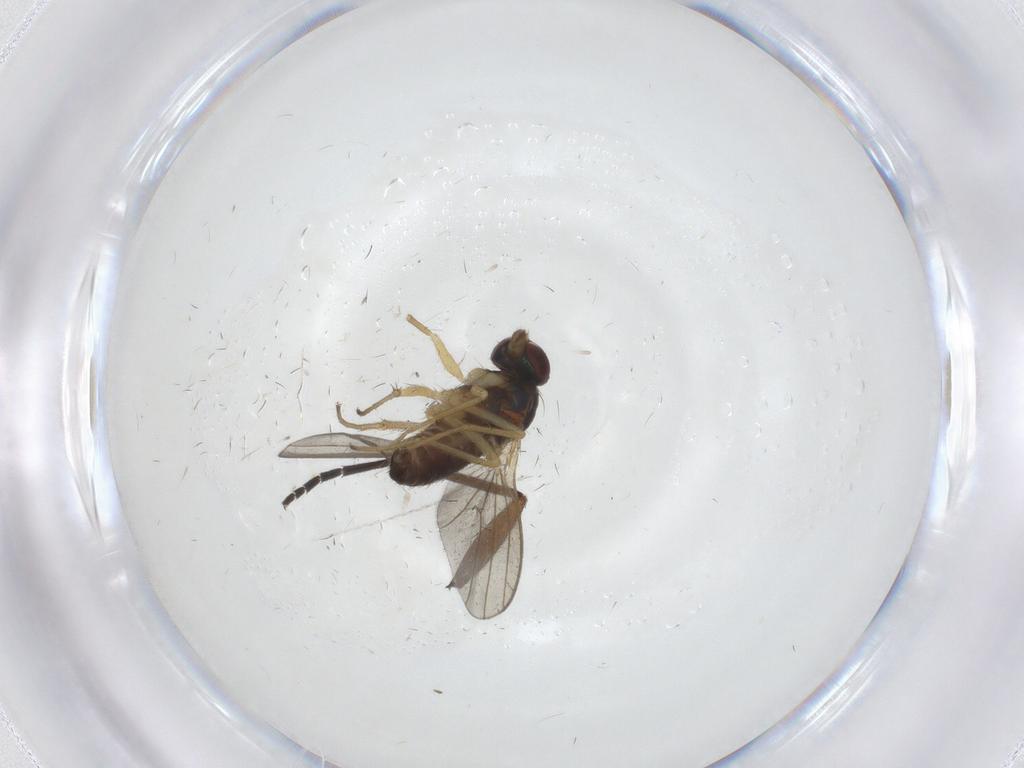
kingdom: Animalia
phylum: Arthropoda
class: Insecta
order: Diptera
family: Dolichopodidae
